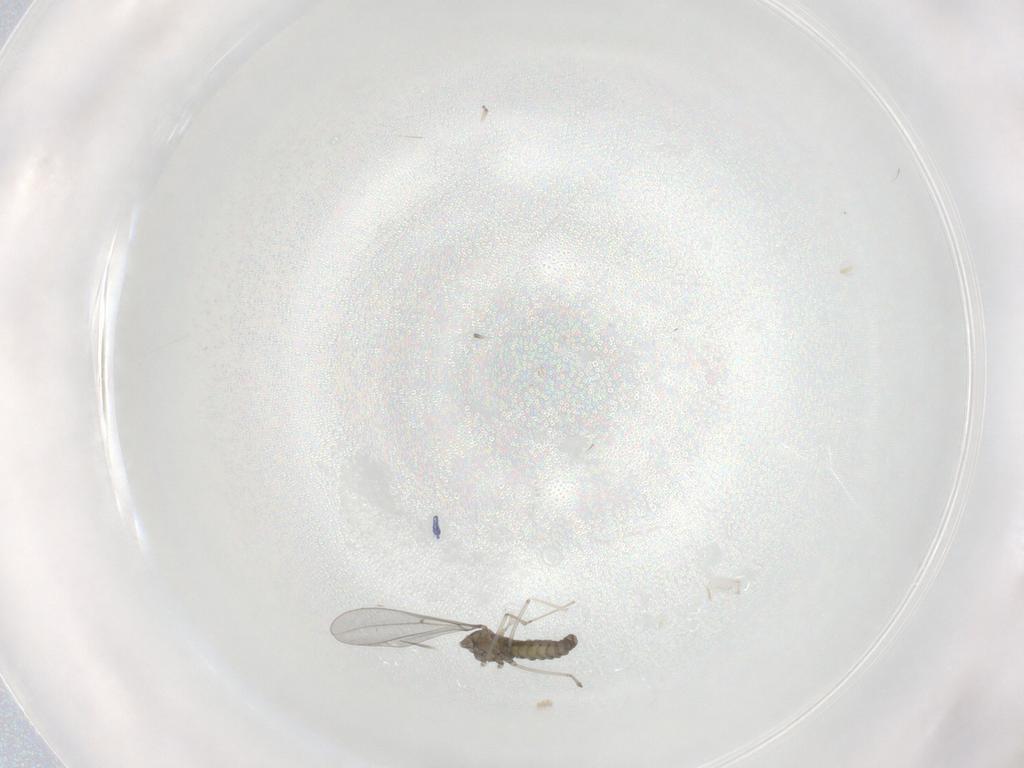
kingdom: Animalia
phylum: Arthropoda
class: Insecta
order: Diptera
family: Cecidomyiidae
